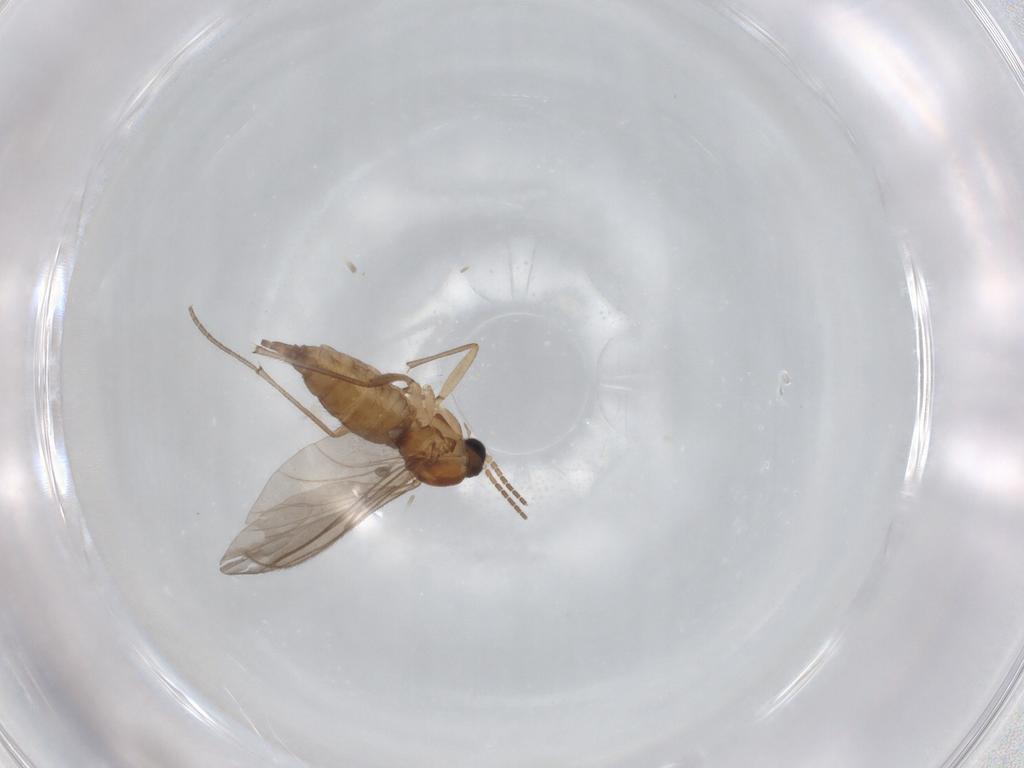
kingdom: Animalia
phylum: Arthropoda
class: Insecta
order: Diptera
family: Sciaridae
